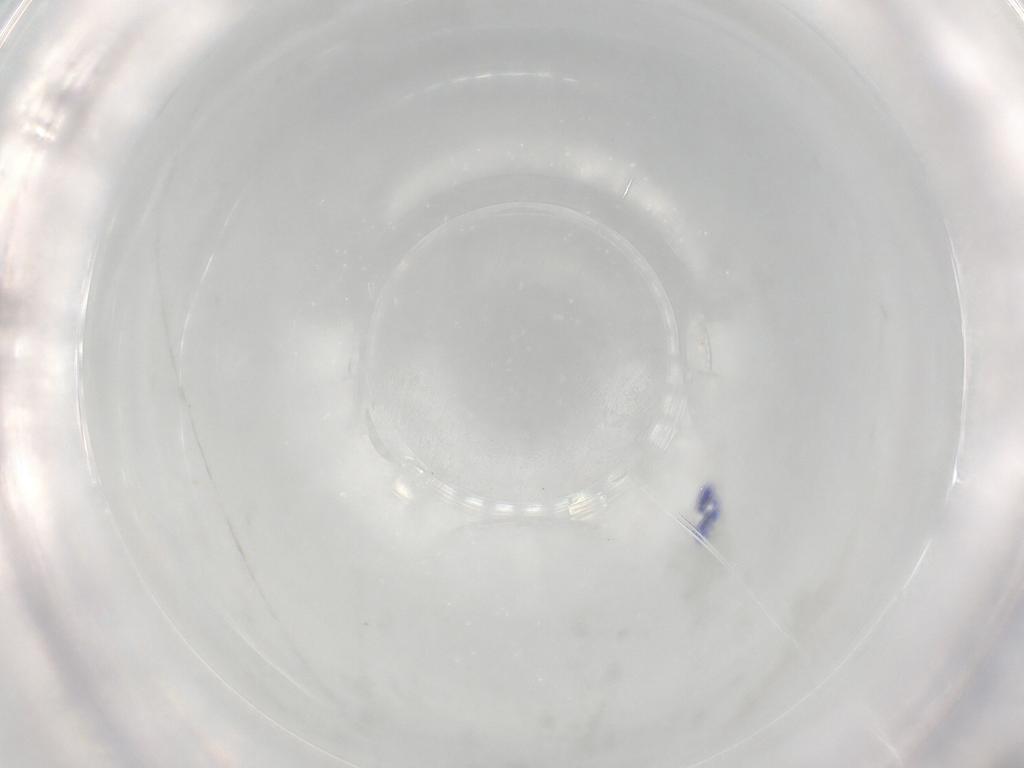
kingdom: Animalia
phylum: Arthropoda
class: Insecta
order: Diptera
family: Sciaridae
